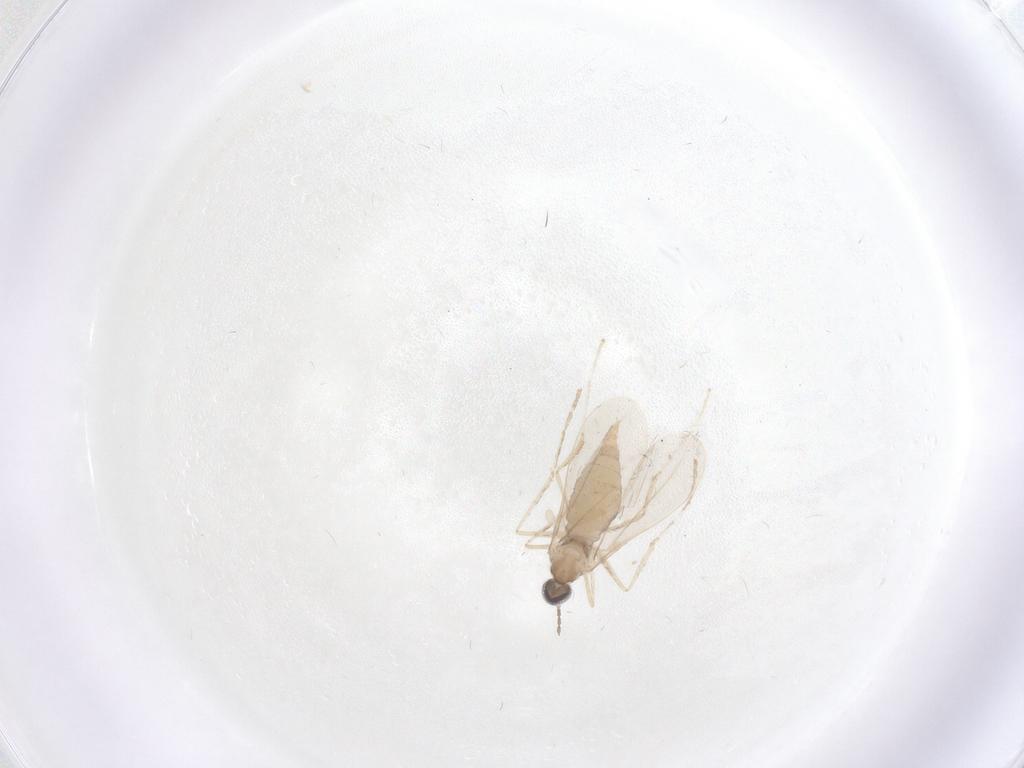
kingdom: Animalia
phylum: Arthropoda
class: Insecta
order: Diptera
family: Cecidomyiidae
